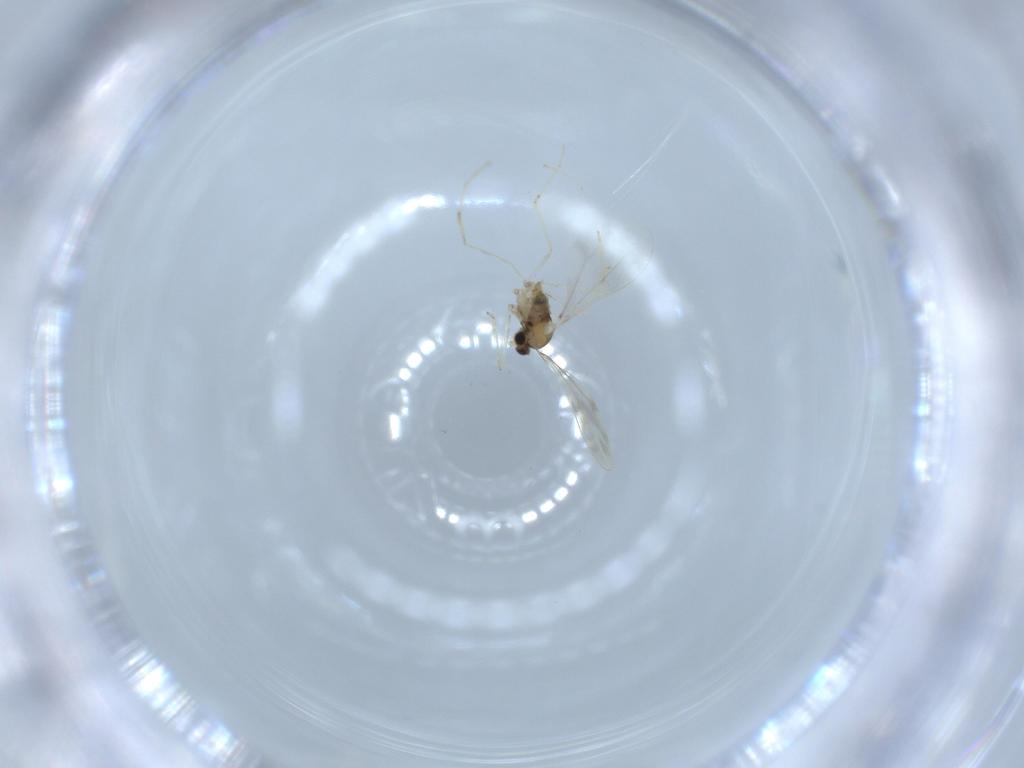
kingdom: Animalia
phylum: Arthropoda
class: Insecta
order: Diptera
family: Cecidomyiidae
